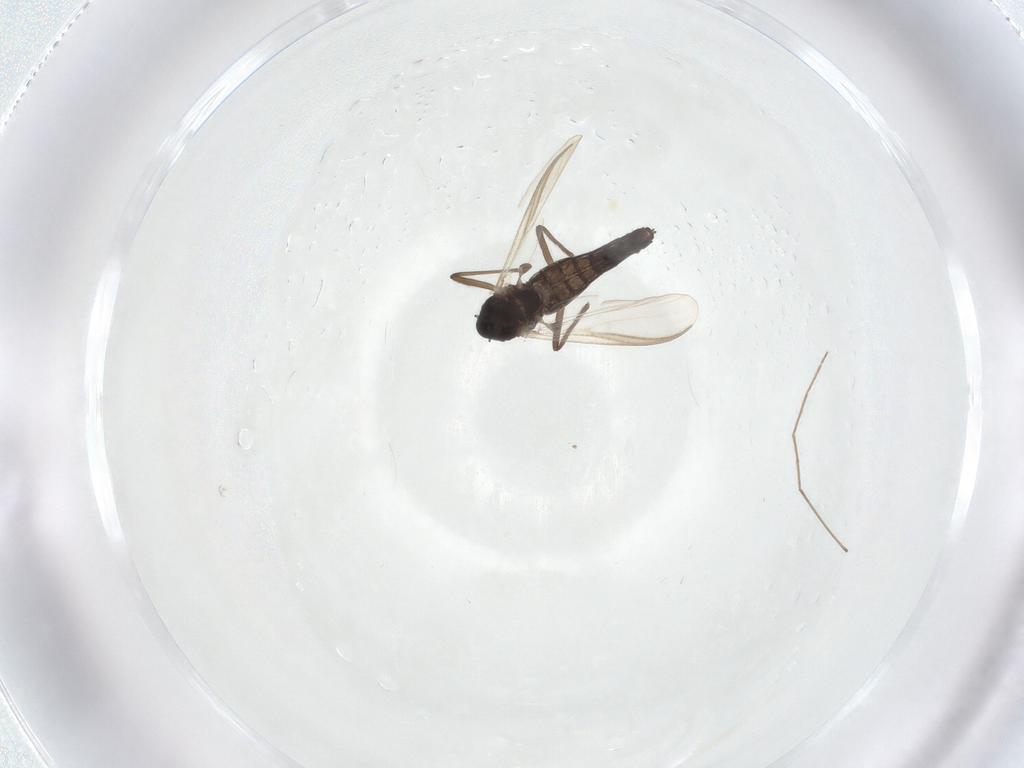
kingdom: Animalia
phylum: Arthropoda
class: Insecta
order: Diptera
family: Chironomidae
